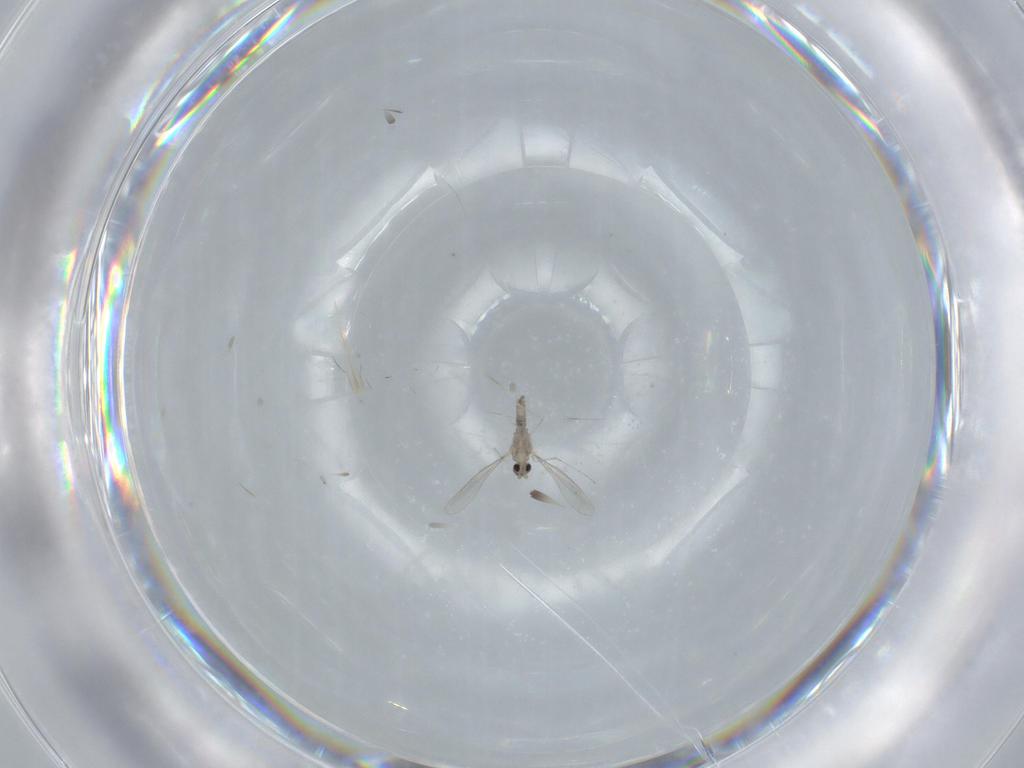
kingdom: Animalia
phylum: Arthropoda
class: Insecta
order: Diptera
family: Cecidomyiidae
